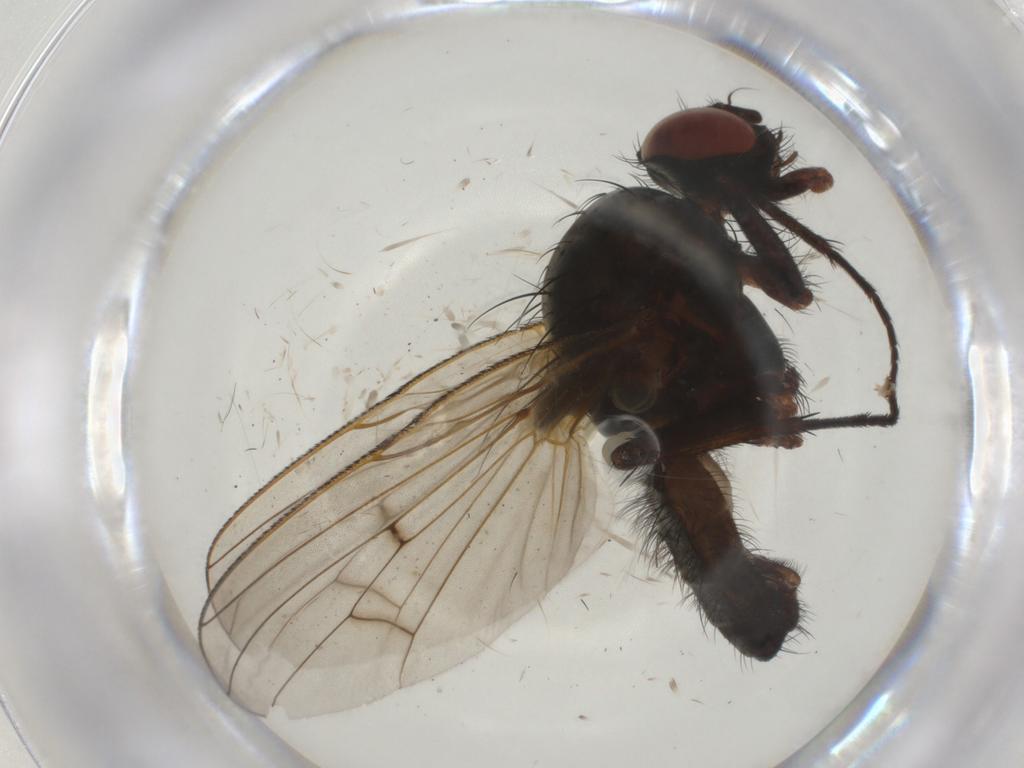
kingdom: Animalia
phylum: Arthropoda
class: Insecta
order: Diptera
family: Anthomyiidae
